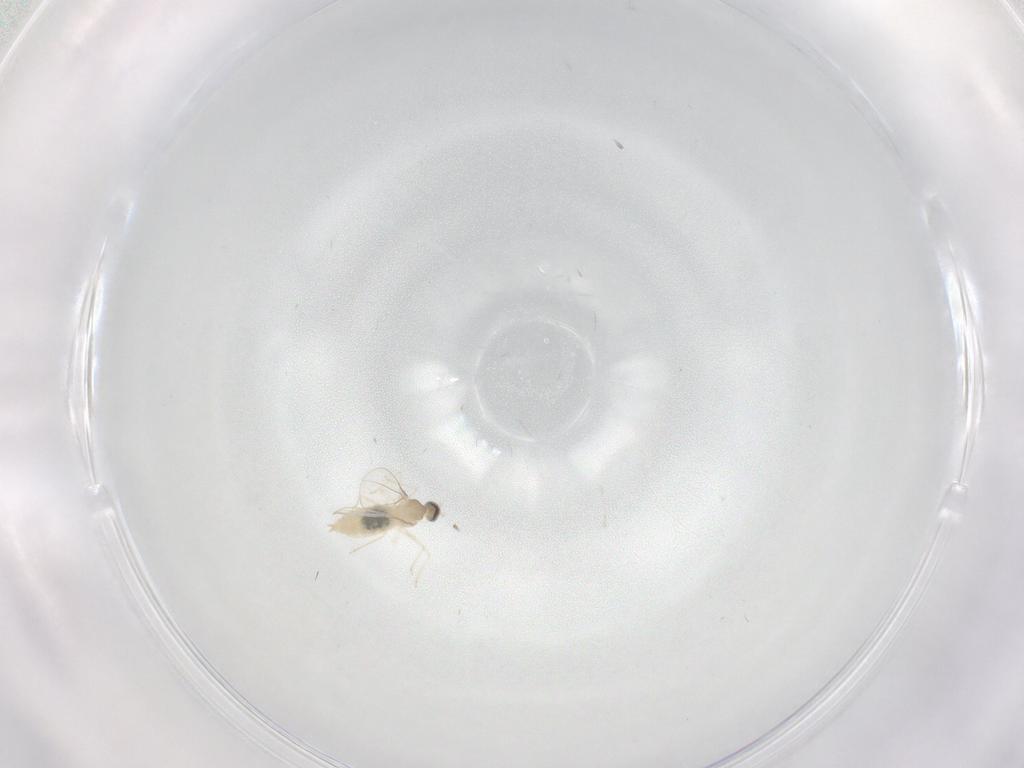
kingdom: Animalia
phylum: Arthropoda
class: Insecta
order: Diptera
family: Cecidomyiidae
